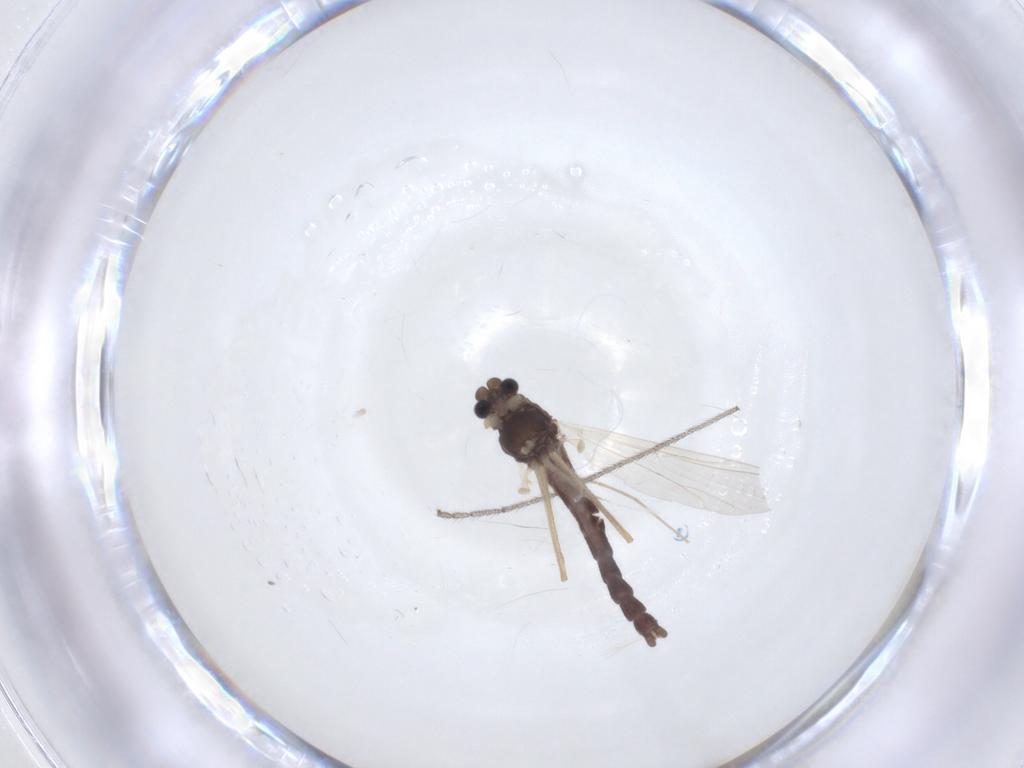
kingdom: Animalia
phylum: Arthropoda
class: Insecta
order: Diptera
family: Chironomidae
